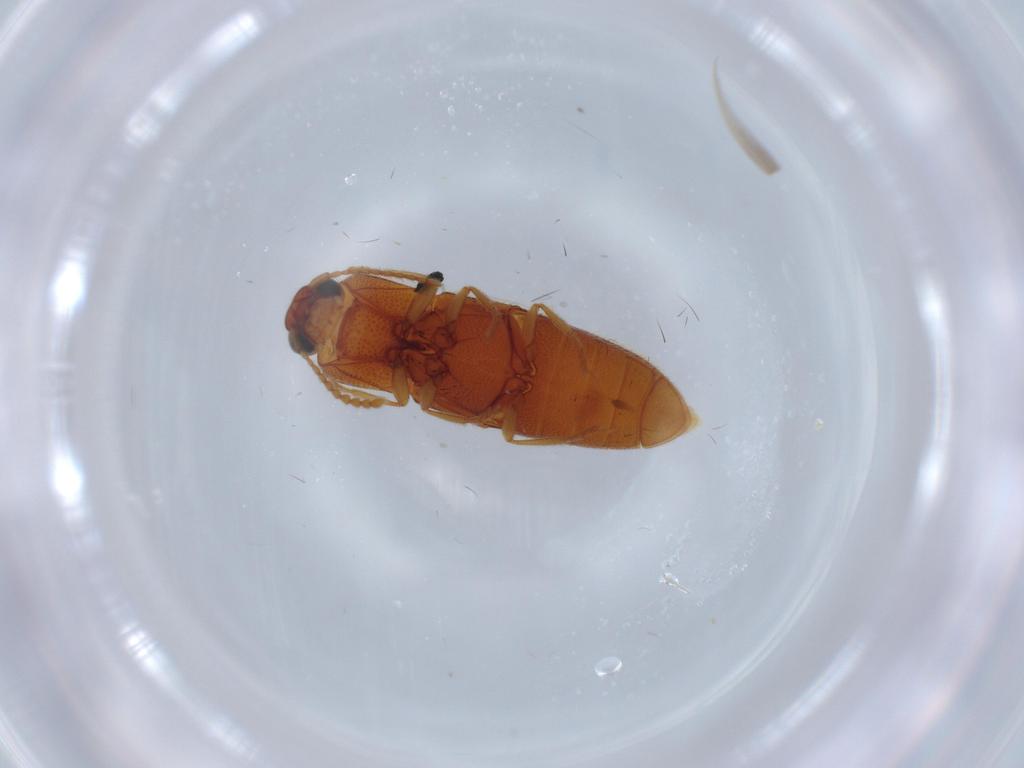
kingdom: Animalia
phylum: Arthropoda
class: Insecta
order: Coleoptera
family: Elateridae
